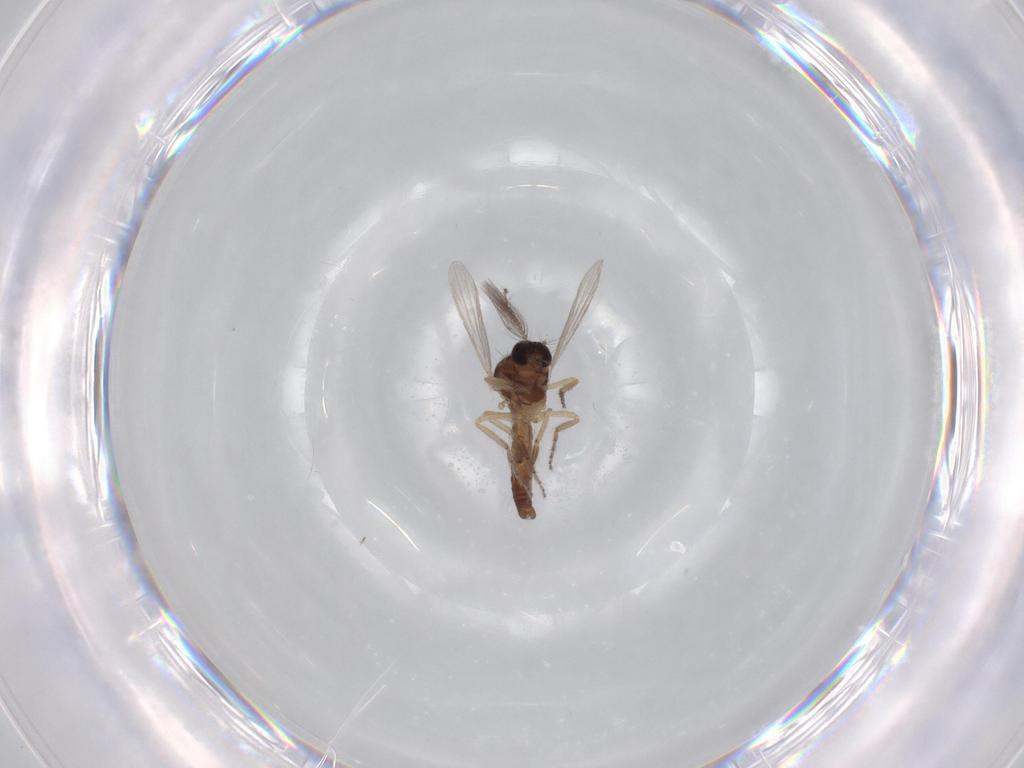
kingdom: Animalia
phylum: Arthropoda
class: Insecta
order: Diptera
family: Ceratopogonidae
